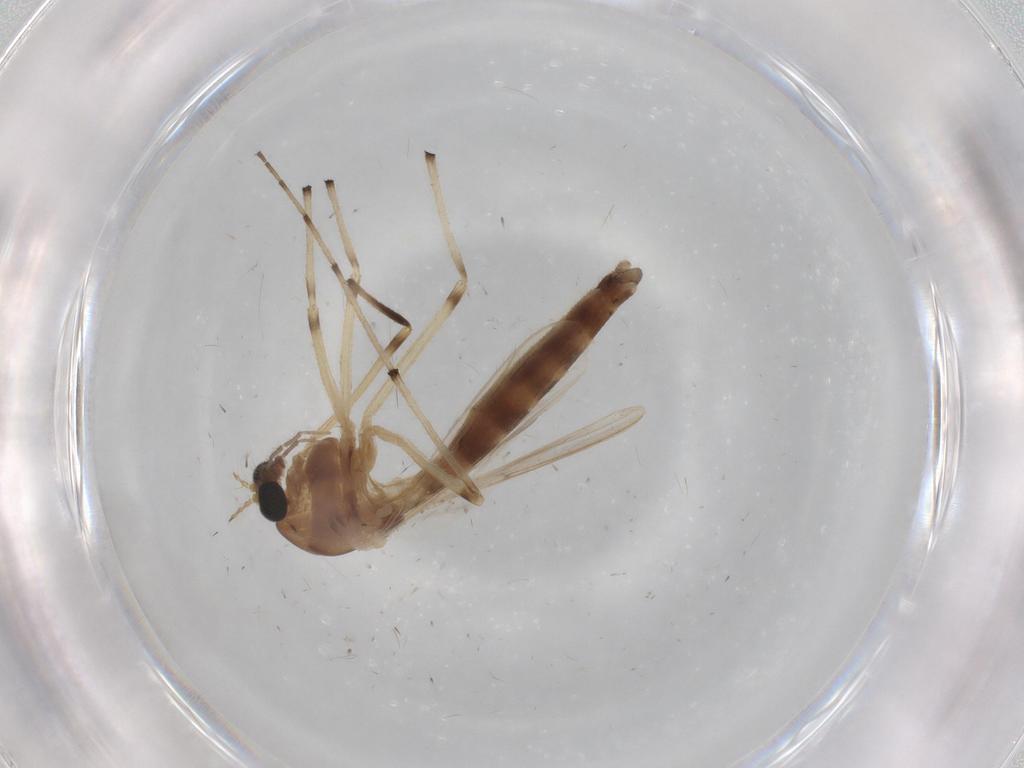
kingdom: Animalia
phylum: Arthropoda
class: Insecta
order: Diptera
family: Chironomidae
